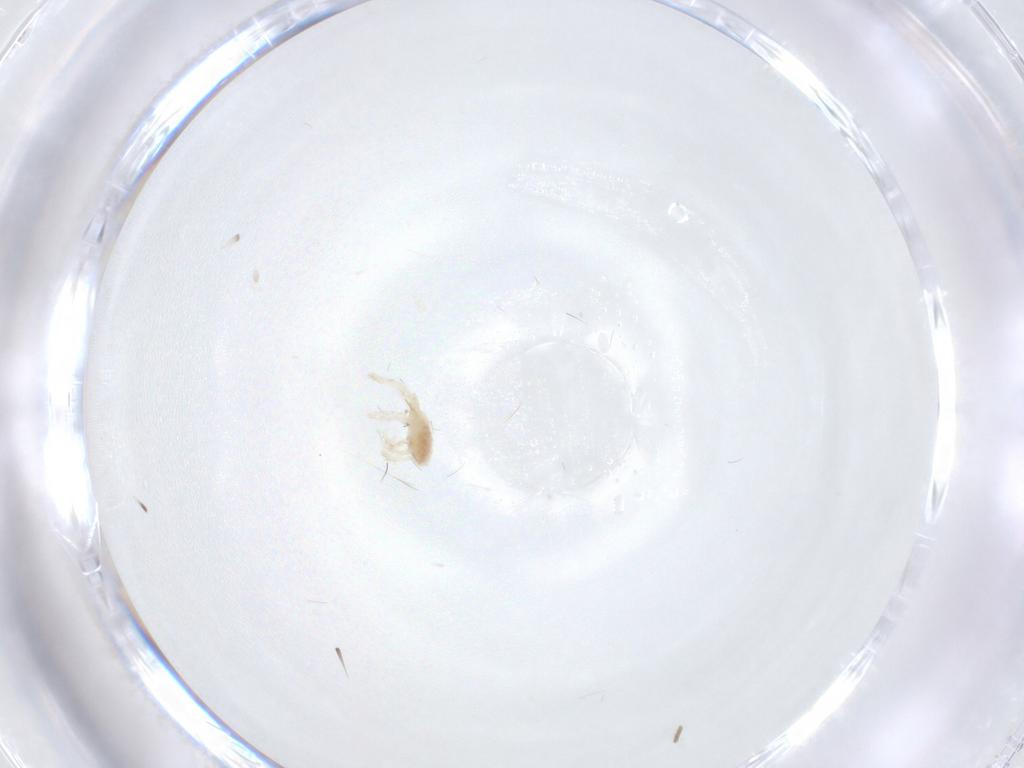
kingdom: Animalia
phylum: Arthropoda
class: Arachnida
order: Trombidiformes
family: Erythraeidae
